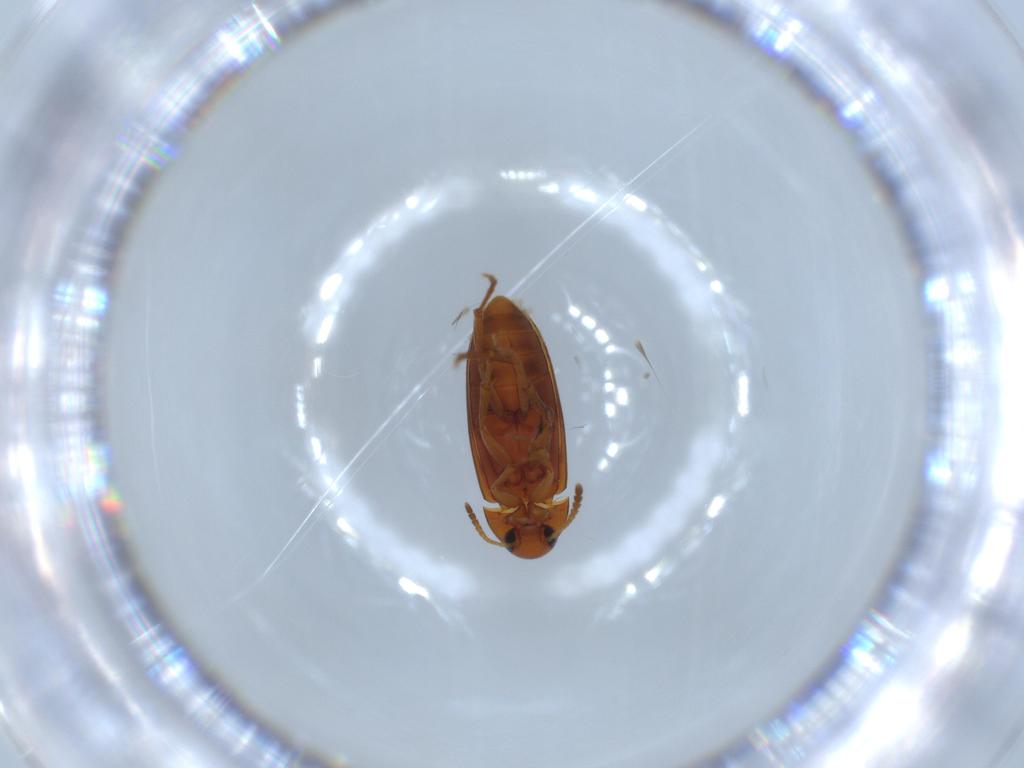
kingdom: Animalia
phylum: Arthropoda
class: Insecta
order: Coleoptera
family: Scraptiidae
